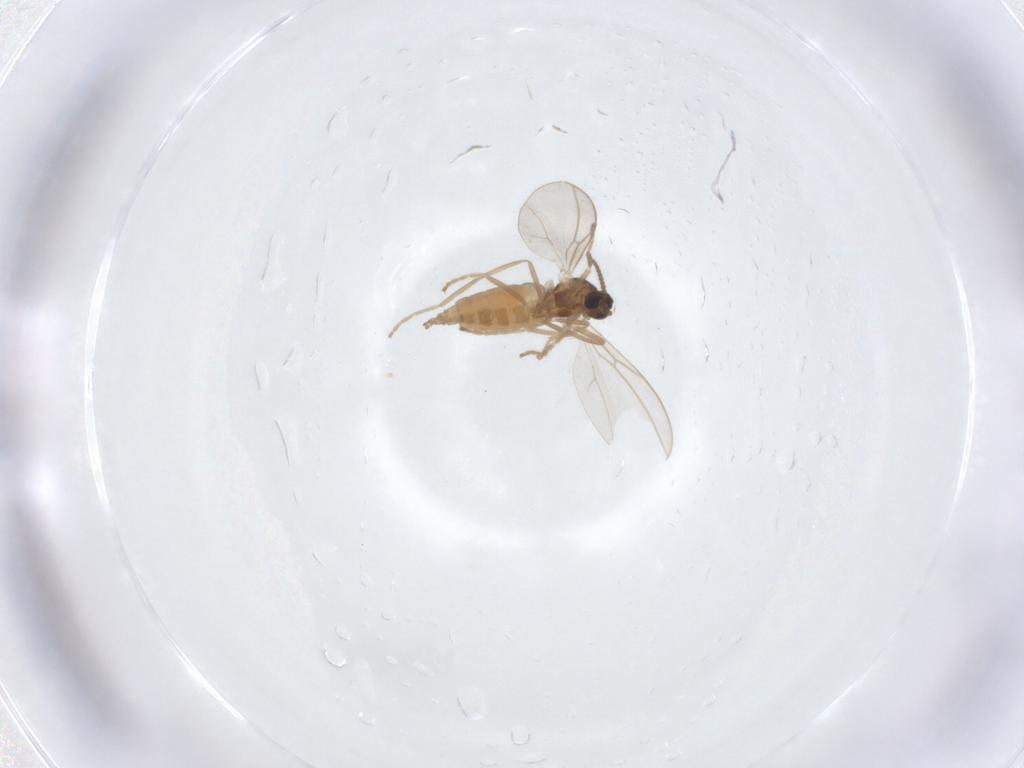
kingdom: Animalia
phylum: Arthropoda
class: Insecta
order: Diptera
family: Cecidomyiidae
